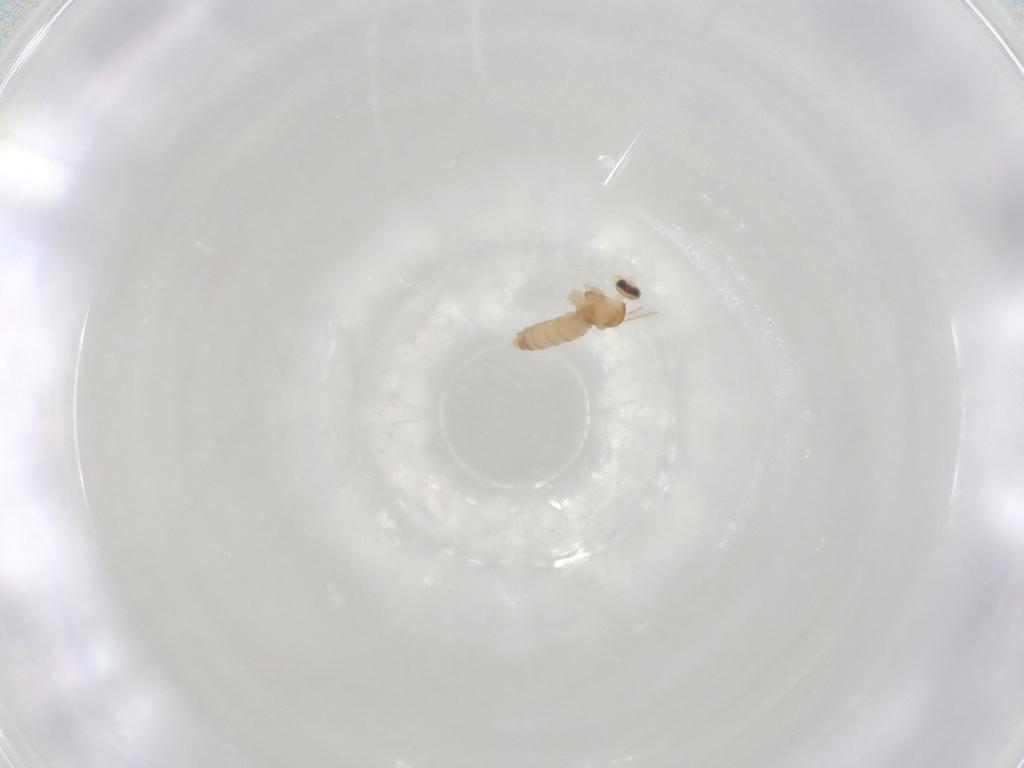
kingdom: Animalia
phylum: Arthropoda
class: Insecta
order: Diptera
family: Cecidomyiidae
